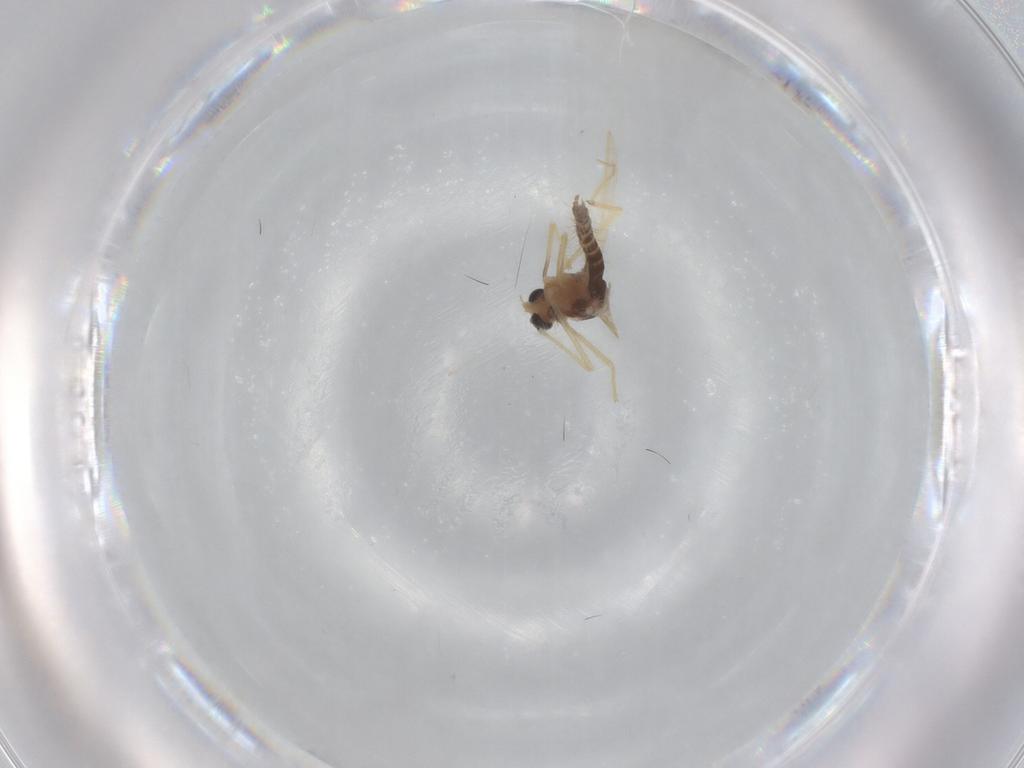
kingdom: Animalia
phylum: Arthropoda
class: Insecta
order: Diptera
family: Chironomidae
